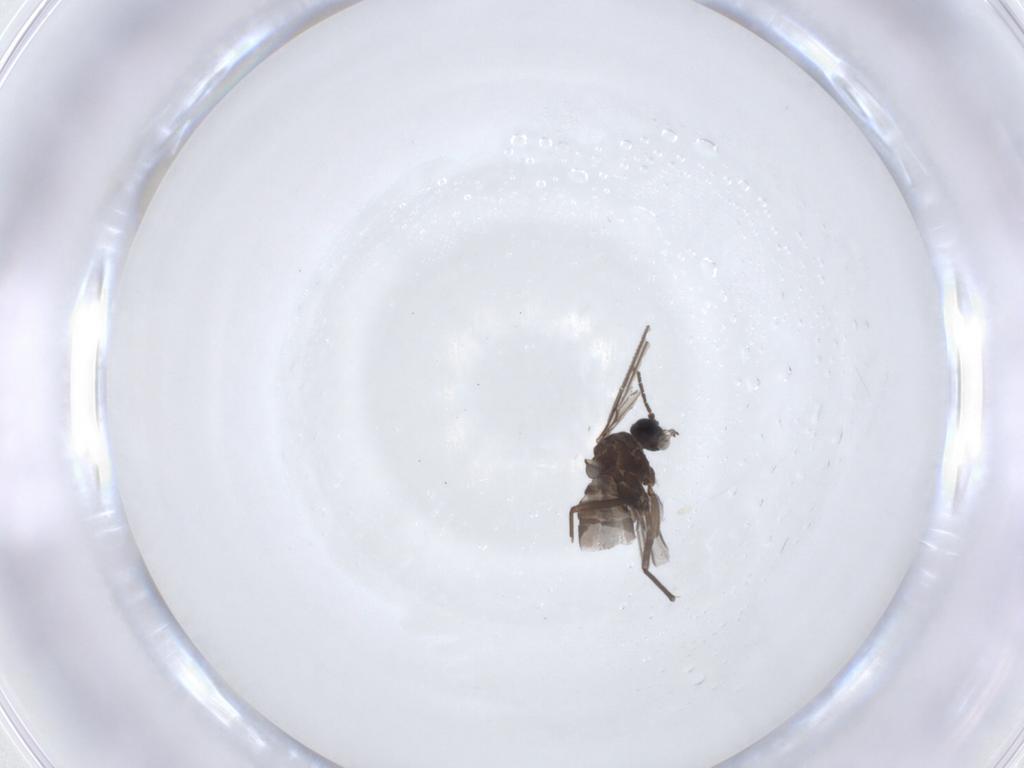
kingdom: Animalia
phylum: Arthropoda
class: Insecta
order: Diptera
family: Sciaridae
